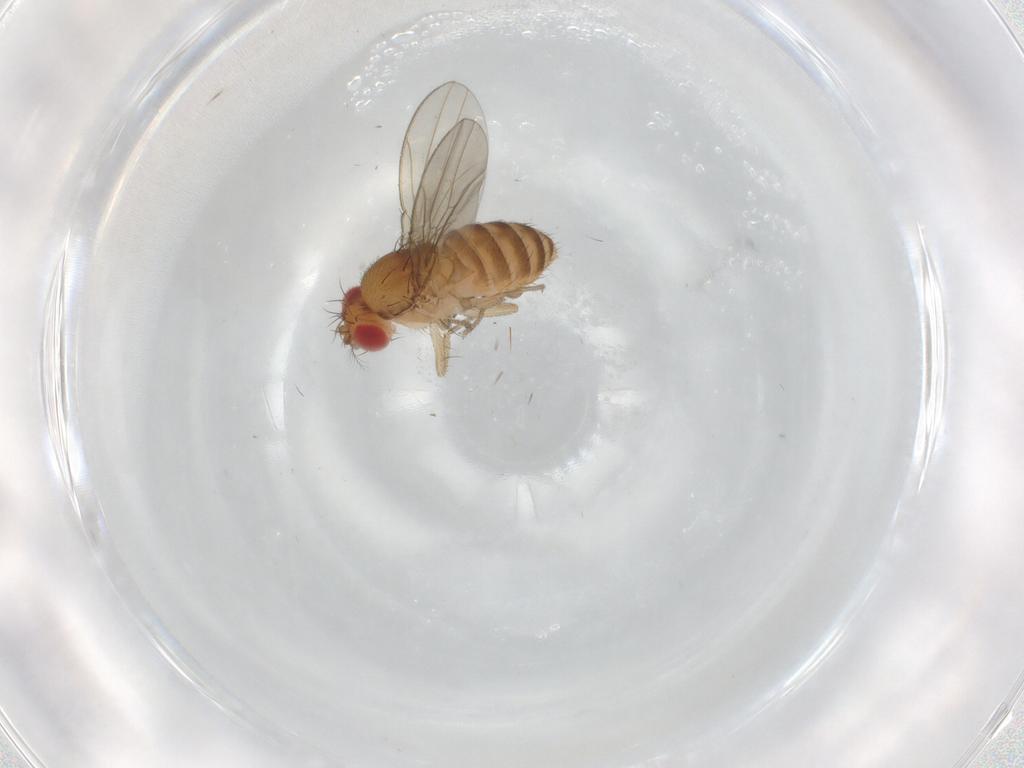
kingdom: Animalia
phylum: Arthropoda
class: Insecta
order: Diptera
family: Drosophilidae
